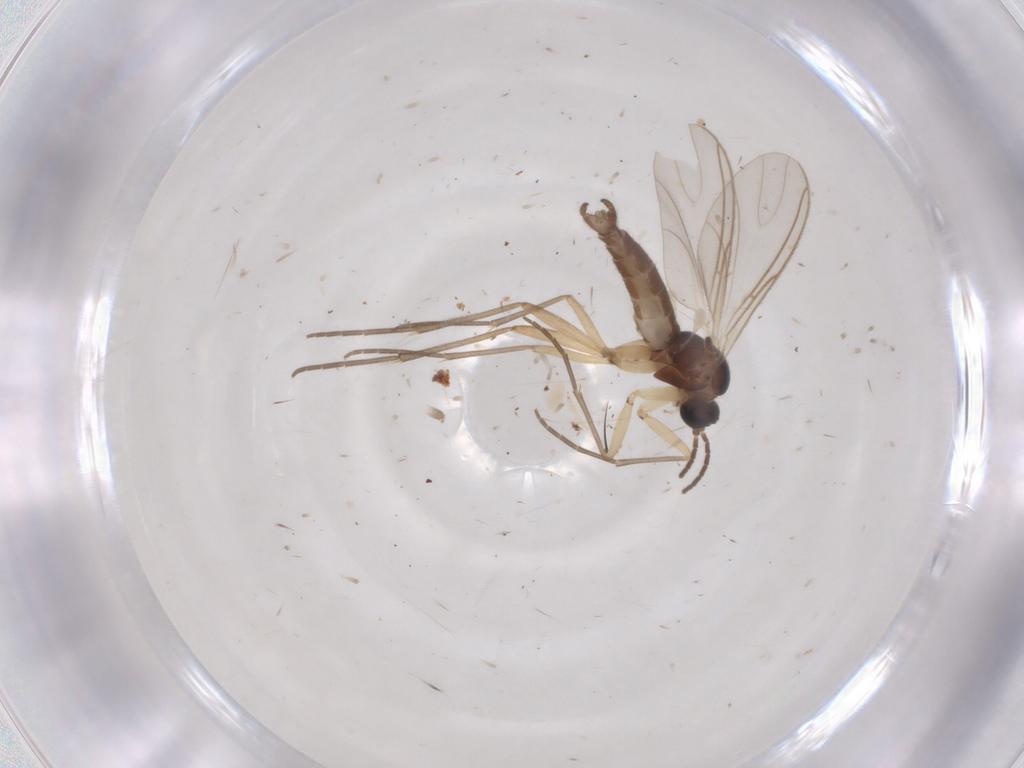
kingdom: Animalia
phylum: Arthropoda
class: Insecta
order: Diptera
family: Sciaridae
